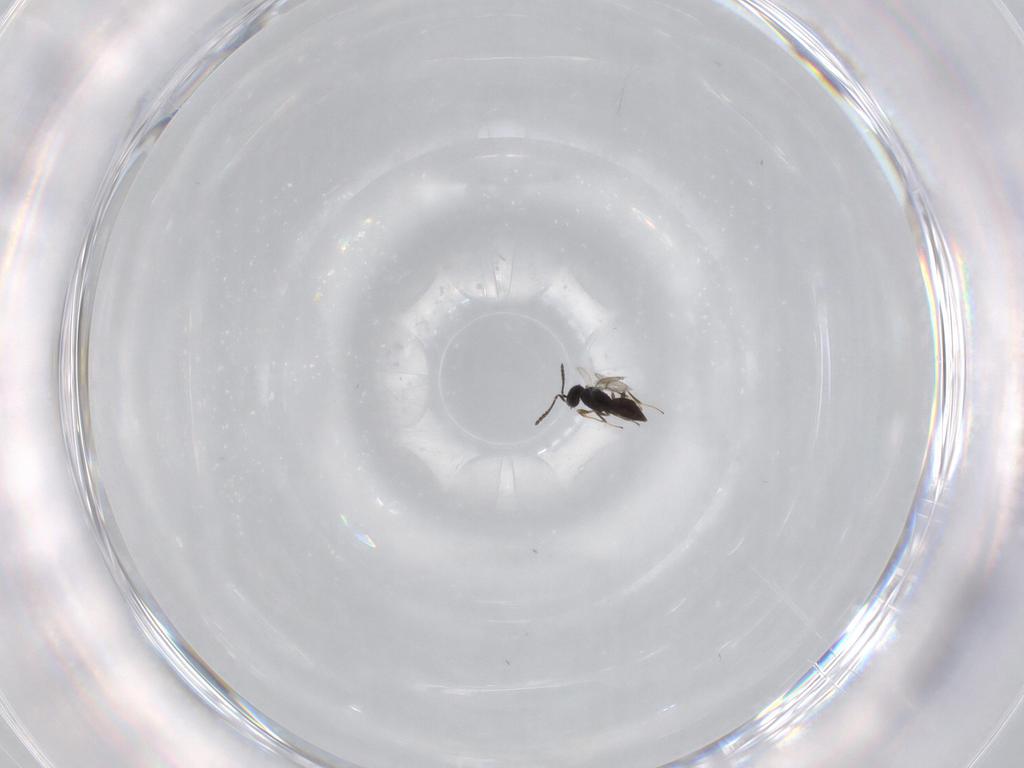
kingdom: Animalia
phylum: Arthropoda
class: Insecta
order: Hymenoptera
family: Scelionidae
